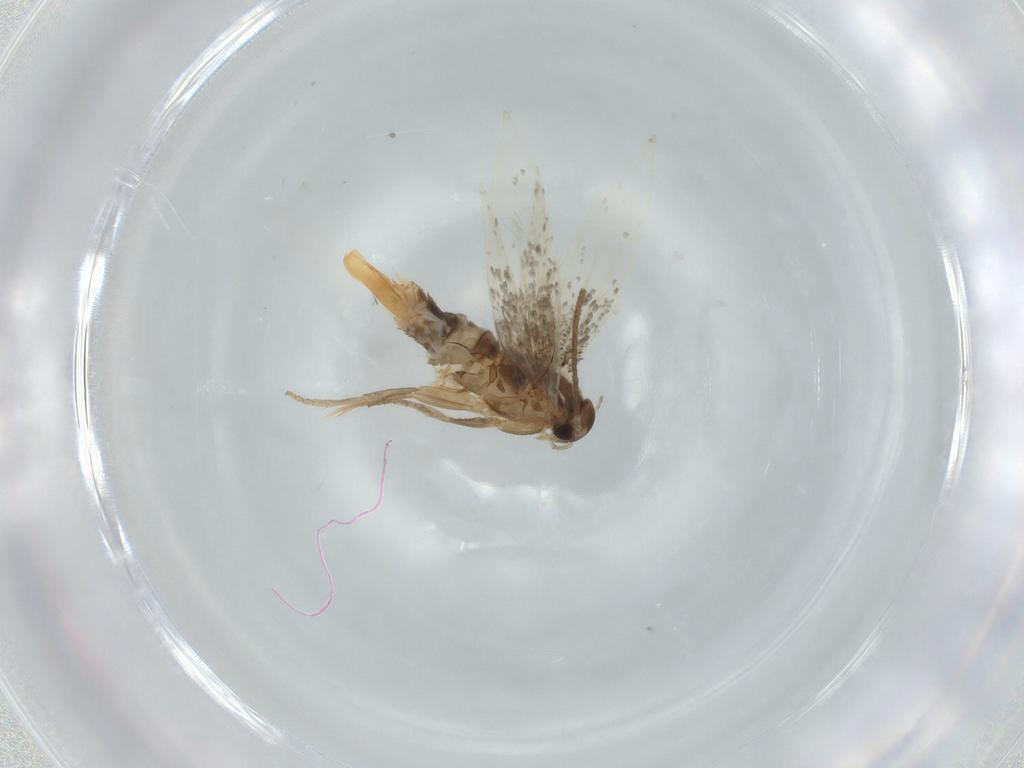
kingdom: Animalia
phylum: Arthropoda
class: Insecta
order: Lepidoptera
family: Elachistidae
